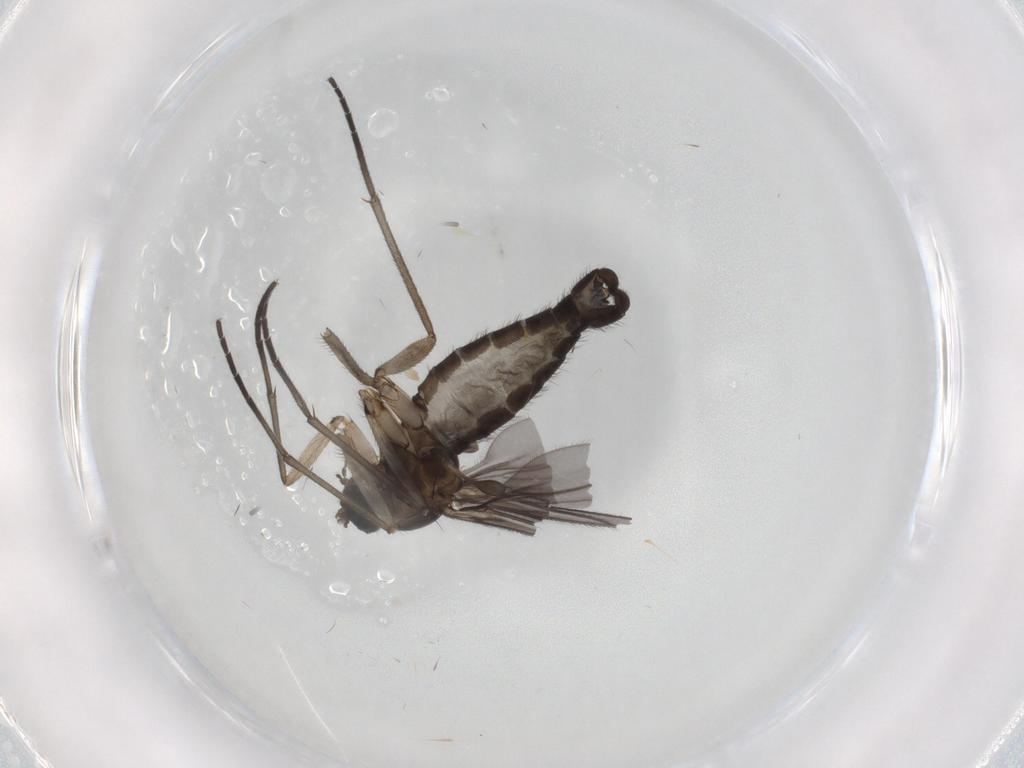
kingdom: Animalia
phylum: Arthropoda
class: Insecta
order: Diptera
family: Sciaridae
